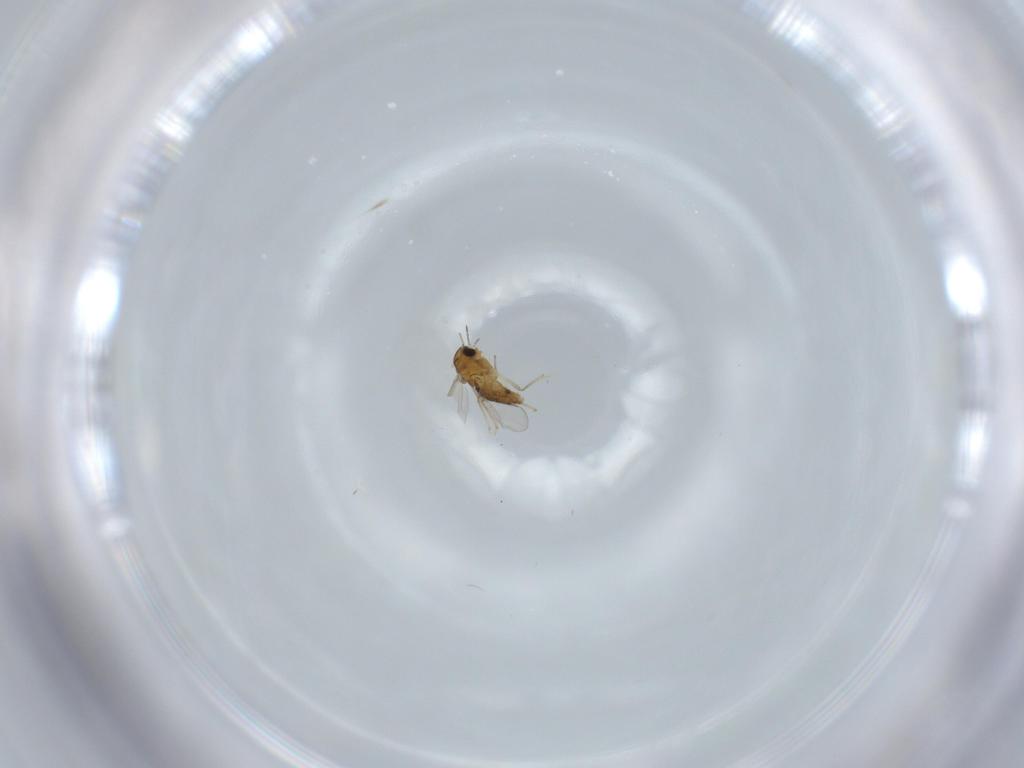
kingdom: Animalia
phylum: Arthropoda
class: Insecta
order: Diptera
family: Chironomidae
